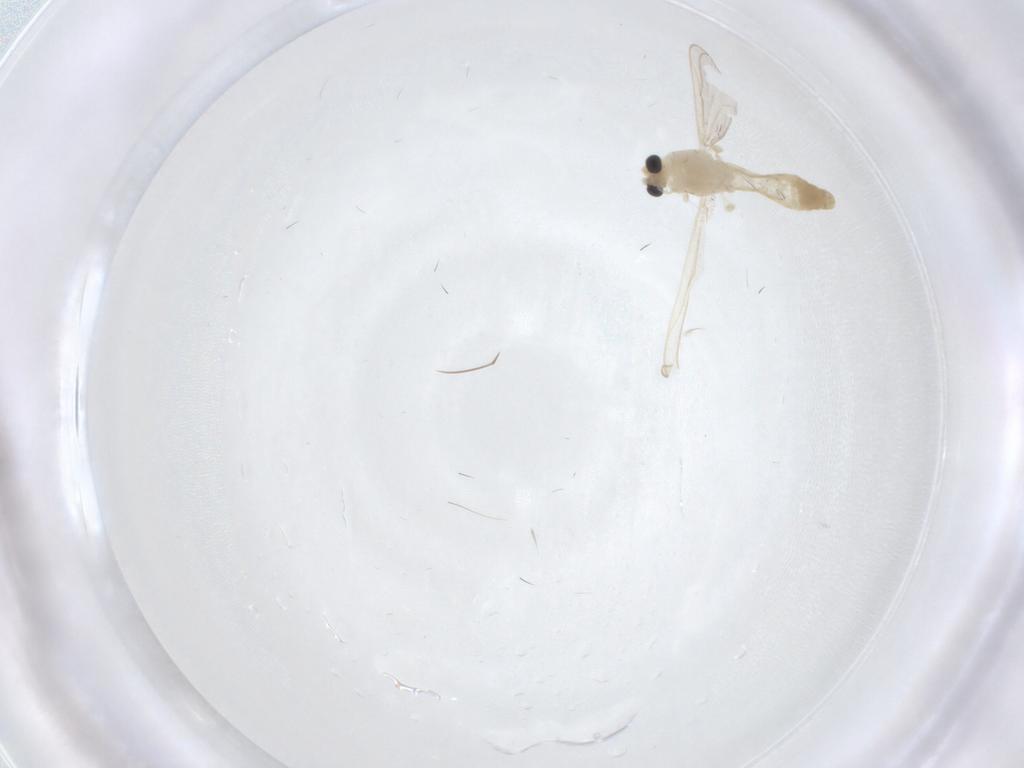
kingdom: Animalia
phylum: Arthropoda
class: Insecta
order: Diptera
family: Chironomidae
